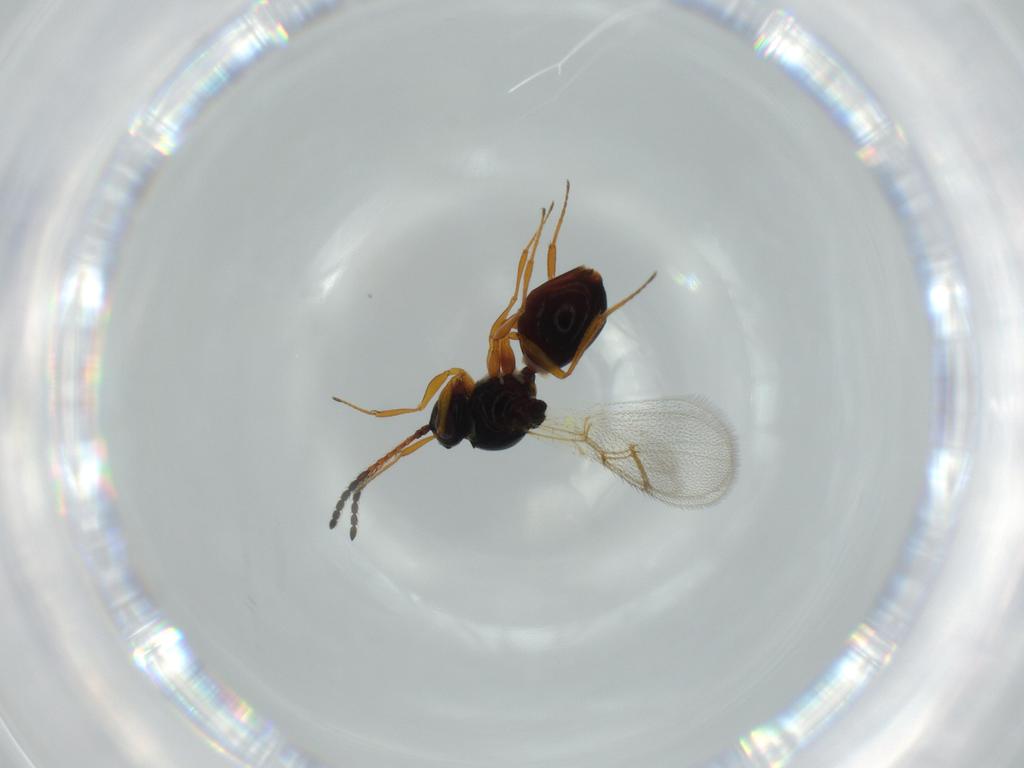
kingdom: Animalia
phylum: Arthropoda
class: Insecta
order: Hymenoptera
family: Figitidae
